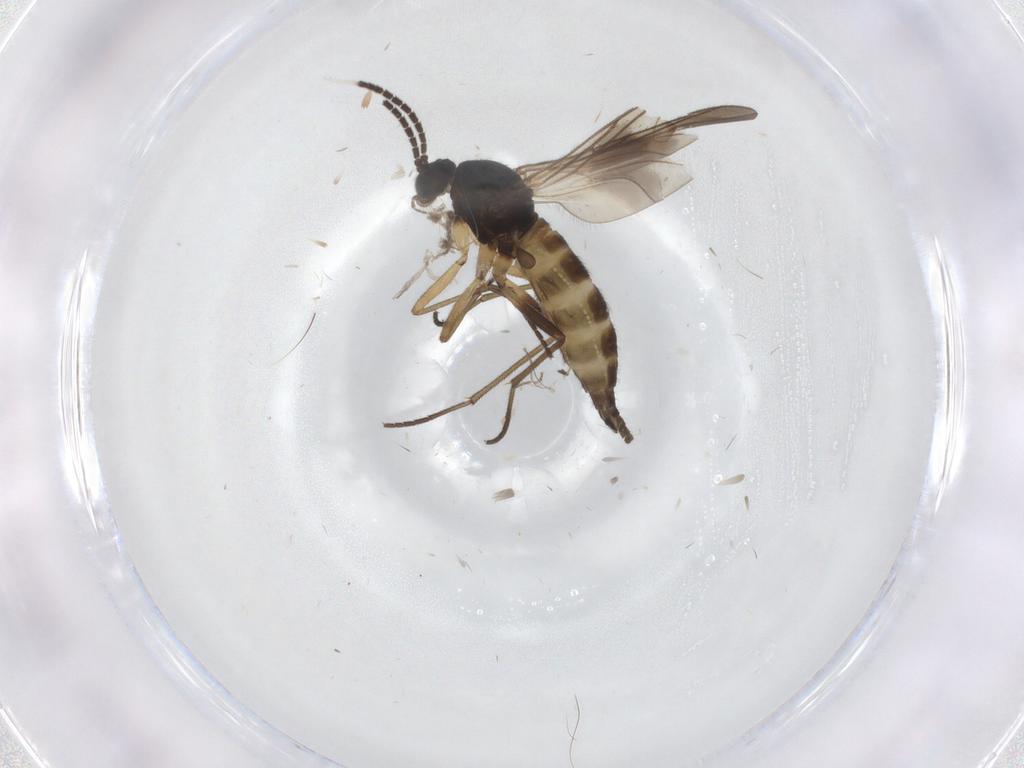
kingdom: Animalia
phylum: Arthropoda
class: Insecta
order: Diptera
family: Sciaridae
